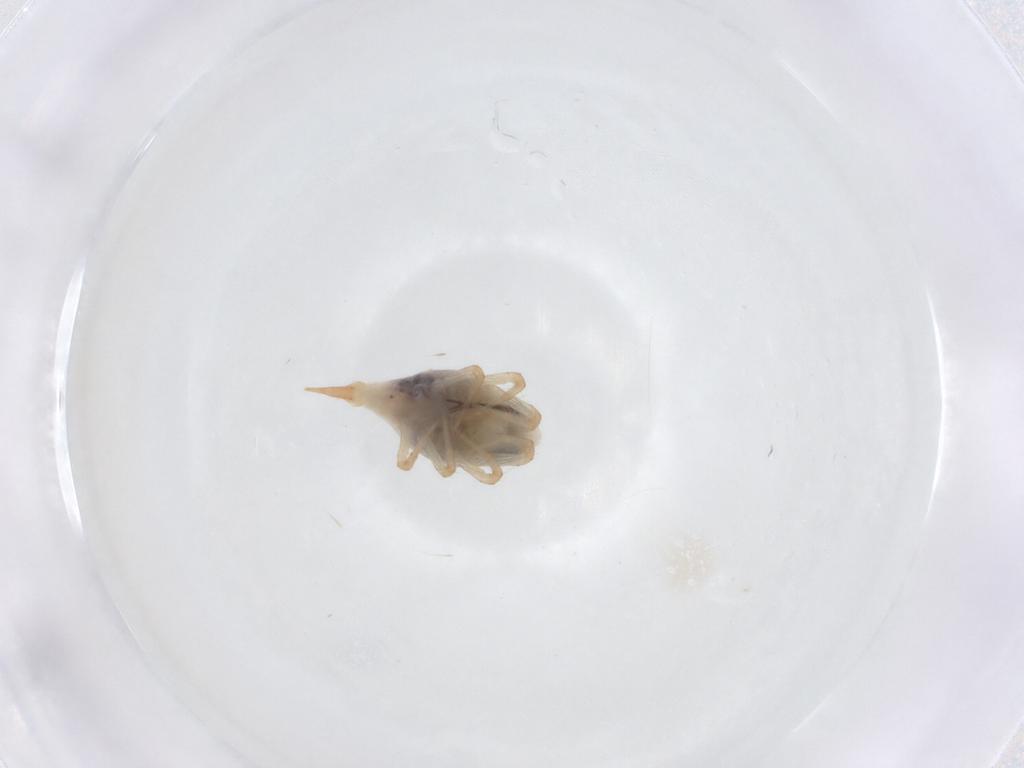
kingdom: Animalia
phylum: Arthropoda
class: Arachnida
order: Trombidiformes
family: Bdellidae
